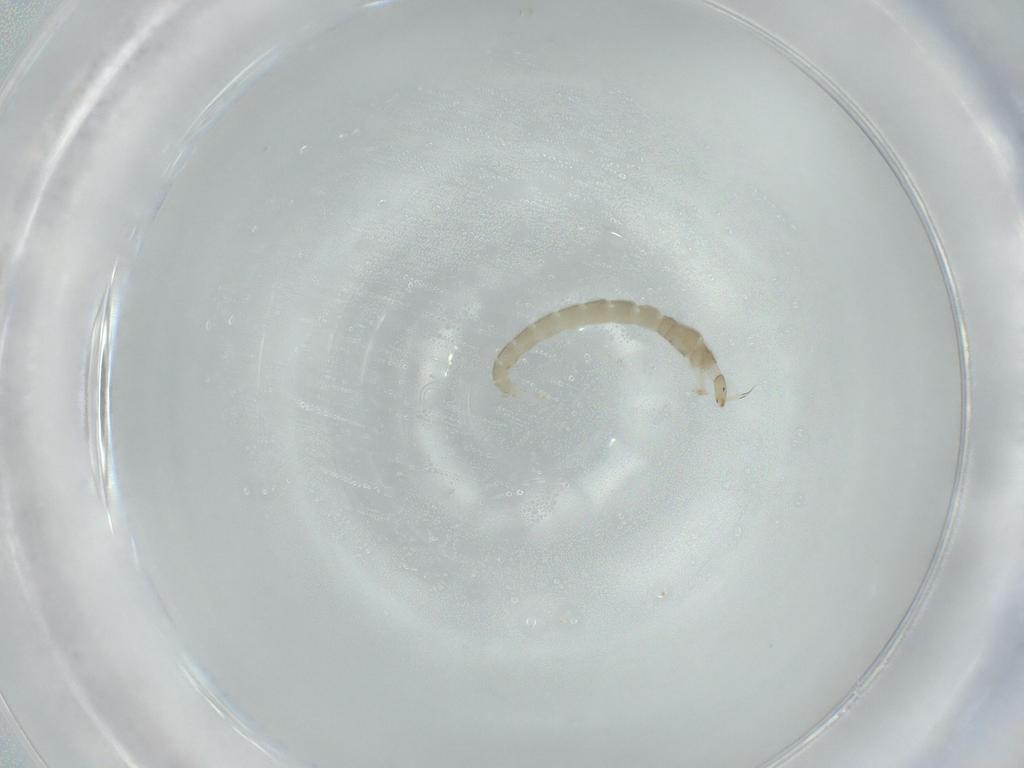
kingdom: Animalia
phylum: Arthropoda
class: Insecta
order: Diptera
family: Chironomidae
